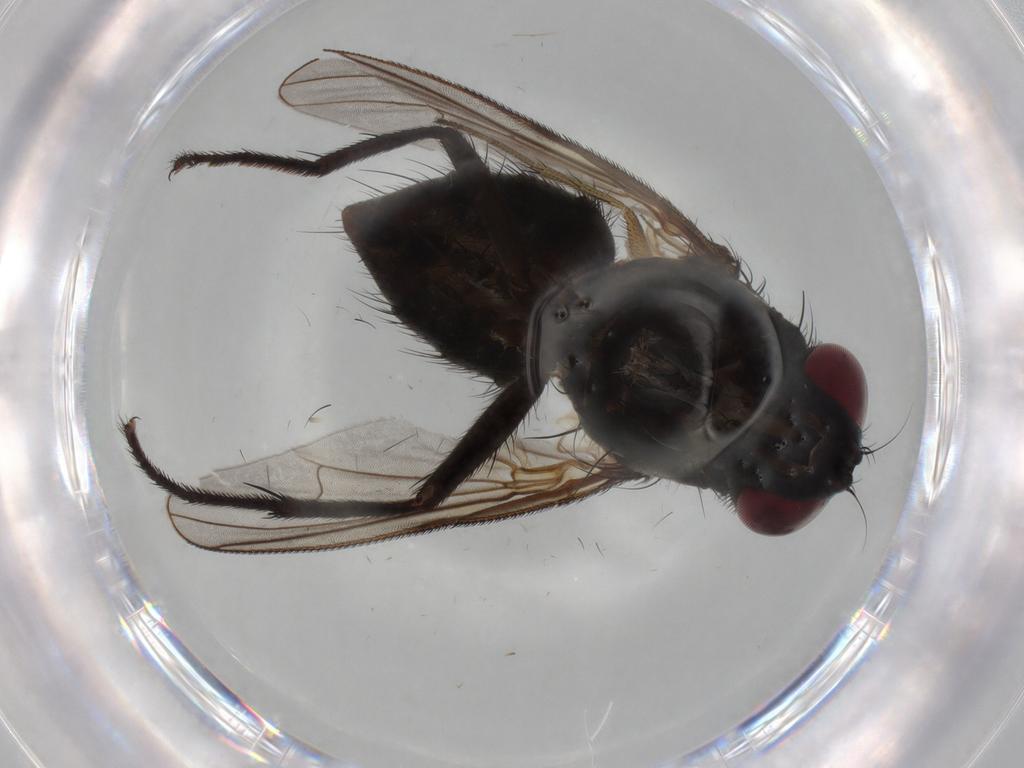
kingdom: Animalia
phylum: Arthropoda
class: Insecta
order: Diptera
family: Muscidae
